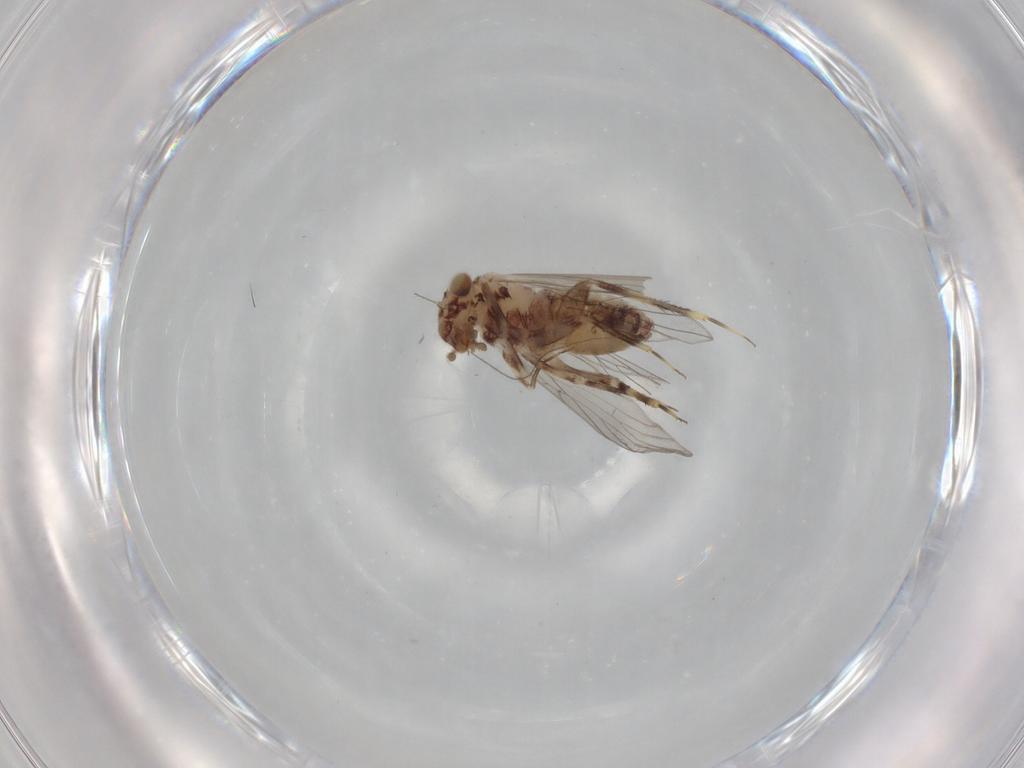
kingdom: Animalia
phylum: Arthropoda
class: Insecta
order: Psocodea
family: Lepidopsocidae
